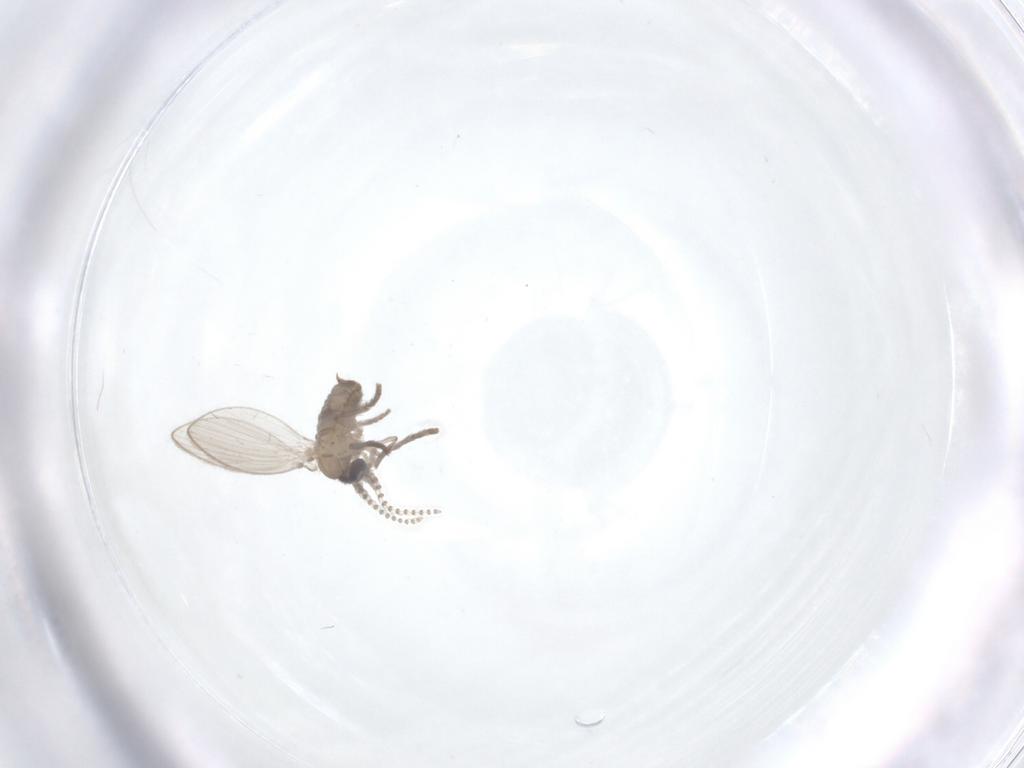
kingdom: Animalia
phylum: Arthropoda
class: Insecta
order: Diptera
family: Psychodidae
